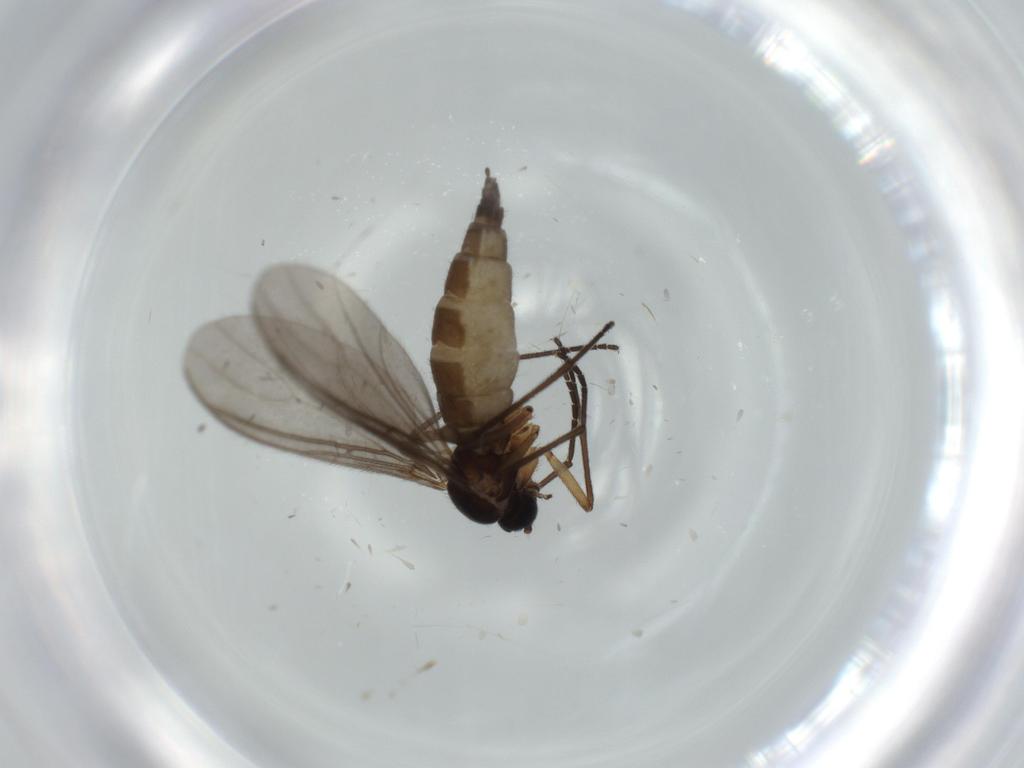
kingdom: Animalia
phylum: Arthropoda
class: Insecta
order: Diptera
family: Sciaridae
